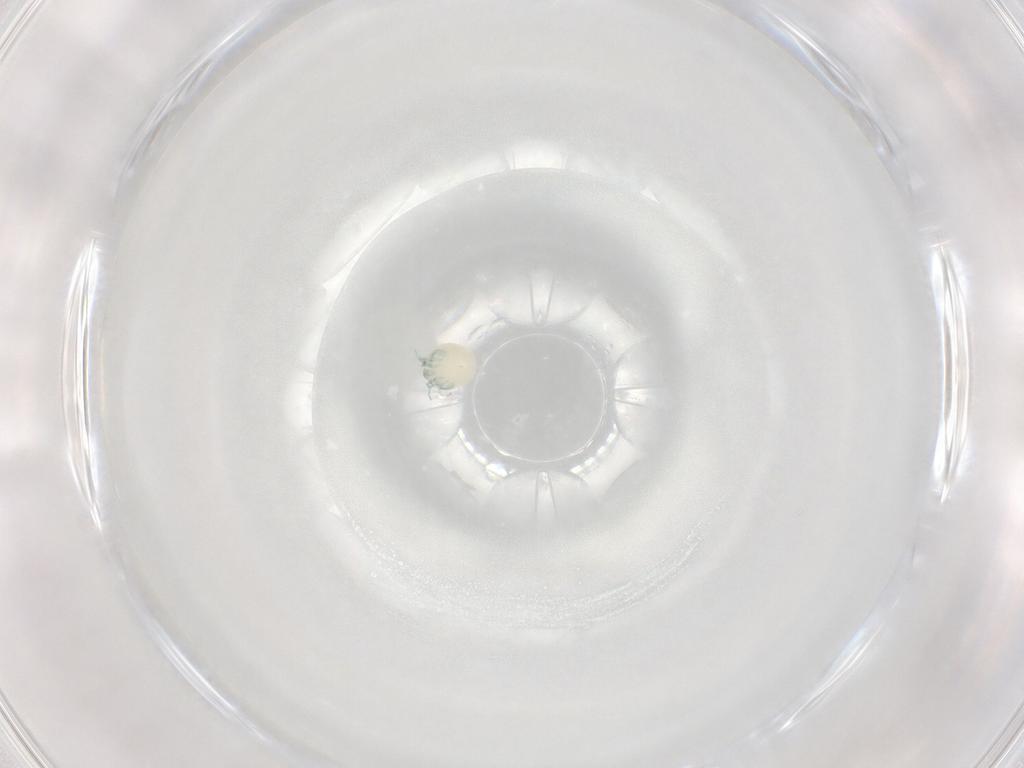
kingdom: Animalia
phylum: Arthropoda
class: Arachnida
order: Trombidiformes
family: Arrenuridae
